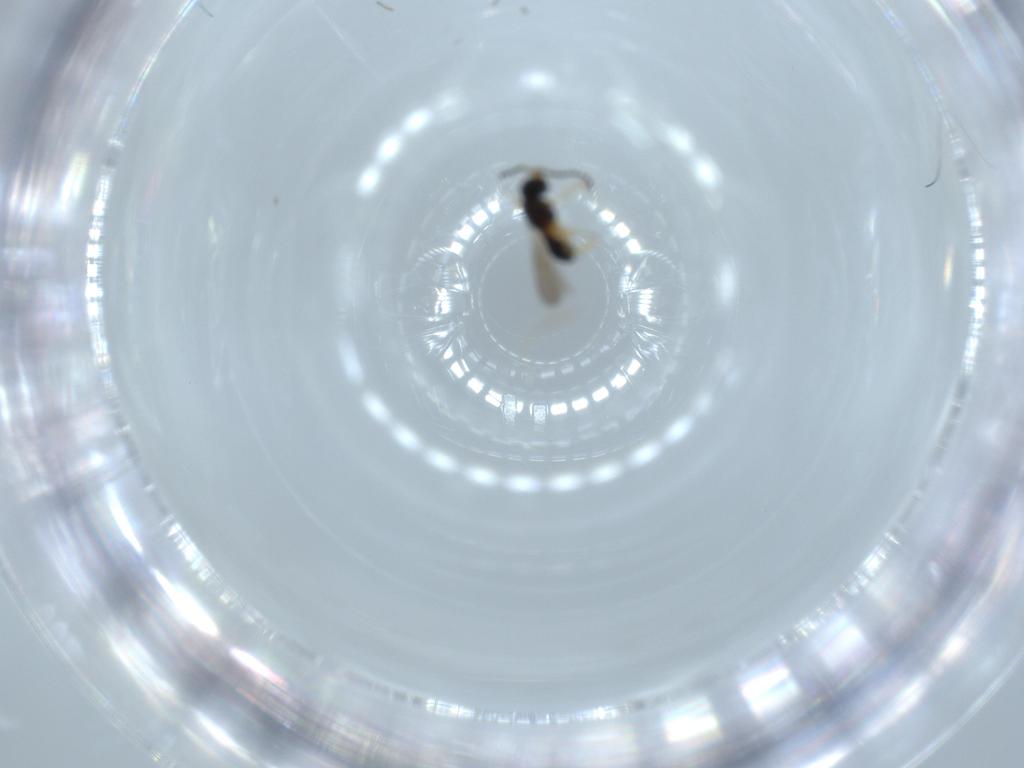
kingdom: Animalia
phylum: Arthropoda
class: Insecta
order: Hymenoptera
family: Scelionidae
